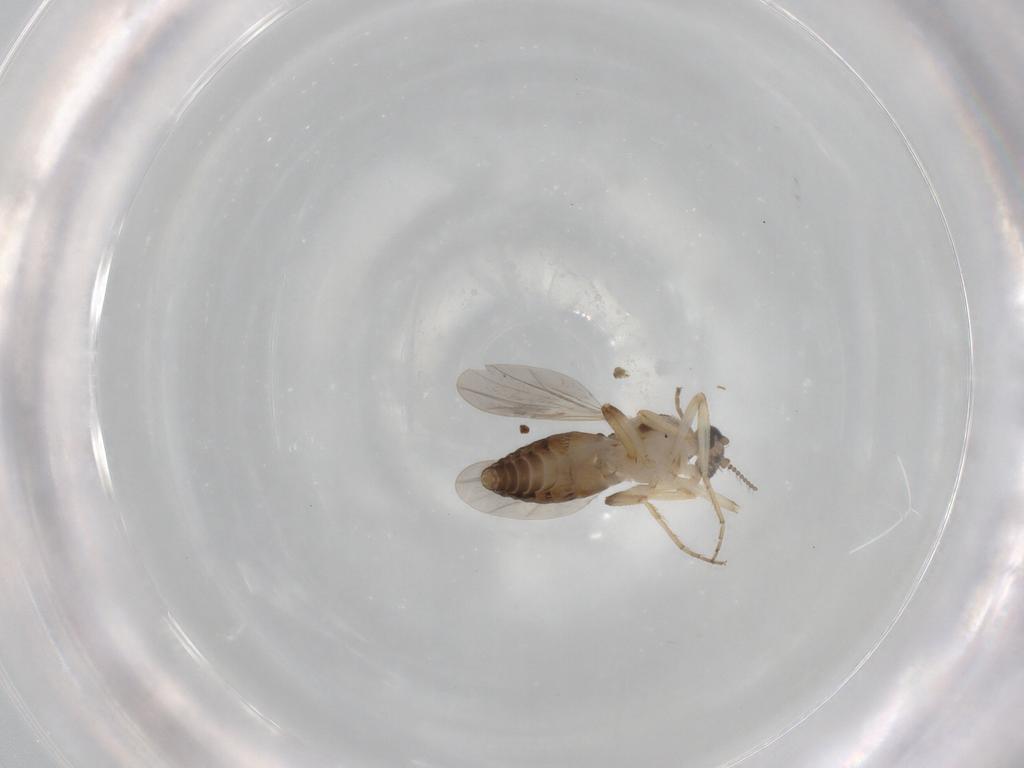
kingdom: Animalia
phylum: Arthropoda
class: Insecta
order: Diptera
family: Ceratopogonidae
